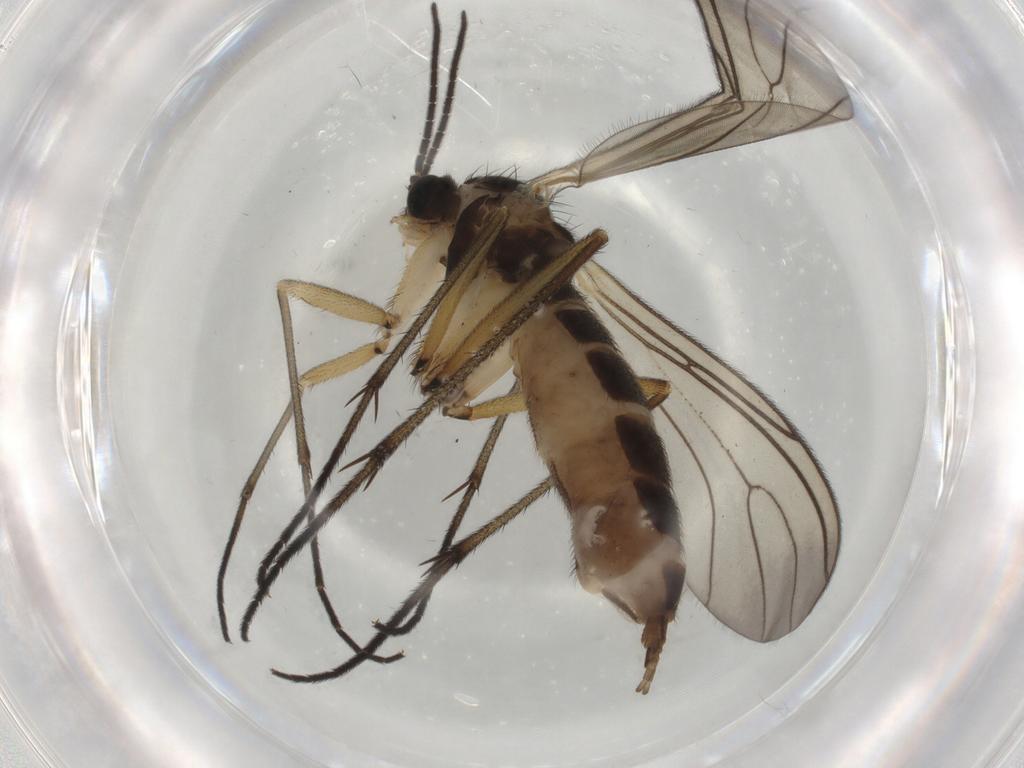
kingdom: Animalia
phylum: Arthropoda
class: Insecta
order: Diptera
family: Sciaridae
